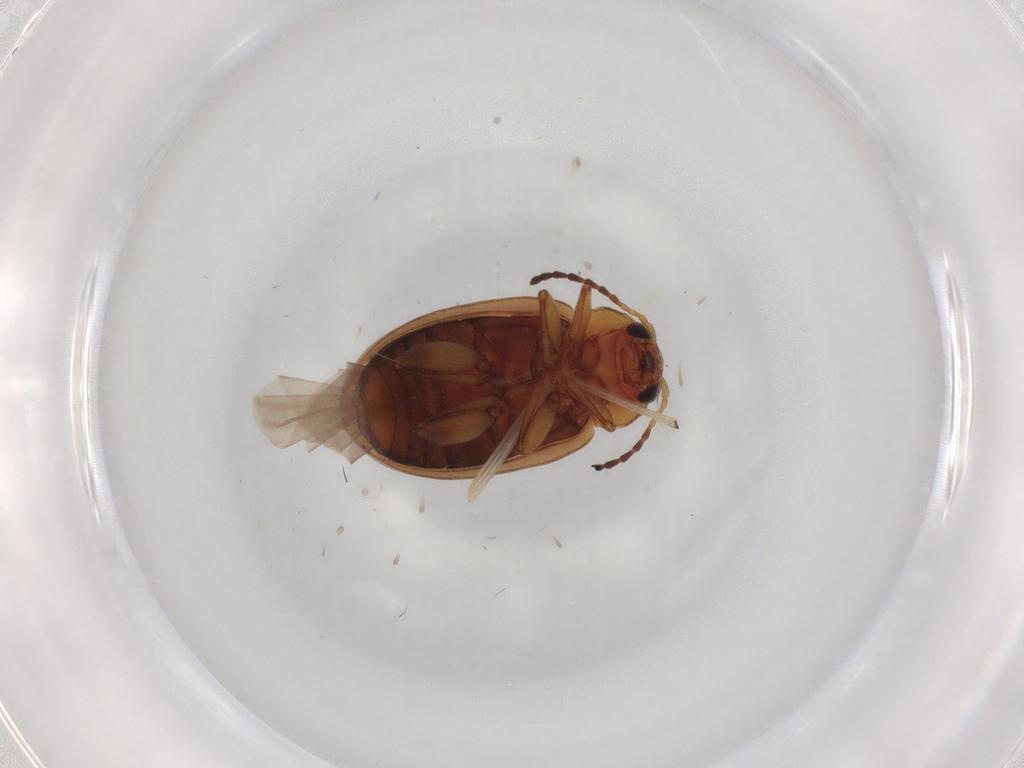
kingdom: Animalia
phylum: Arthropoda
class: Insecta
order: Coleoptera
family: Chrysomelidae
